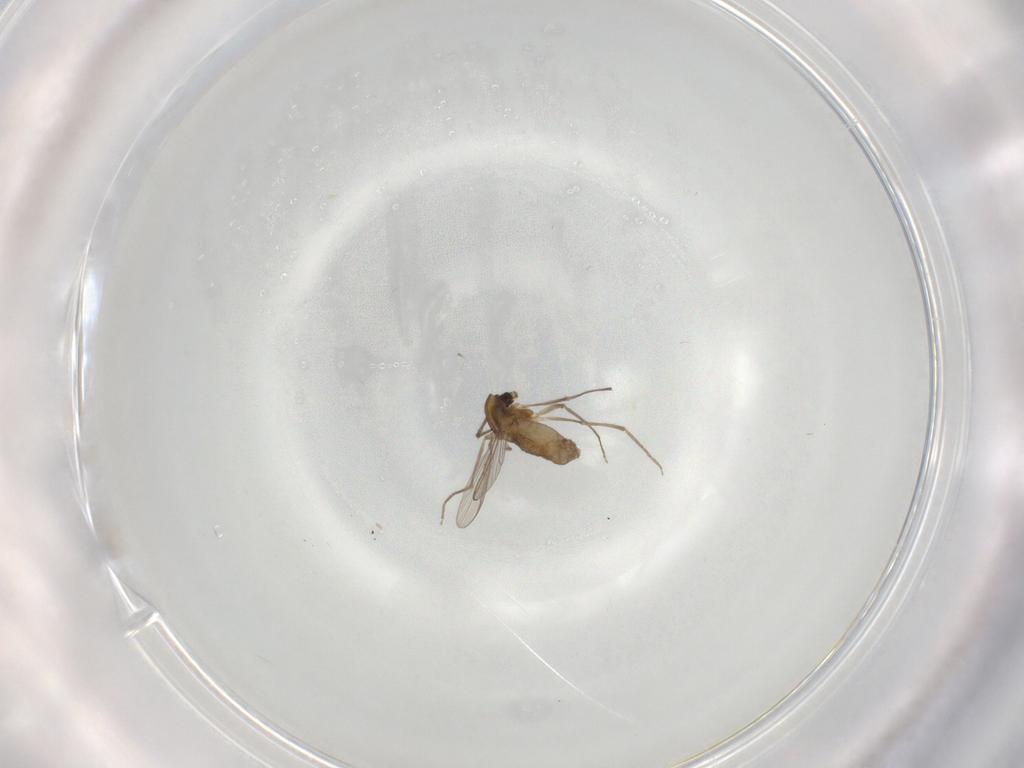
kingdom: Animalia
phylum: Arthropoda
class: Insecta
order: Diptera
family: Chironomidae
